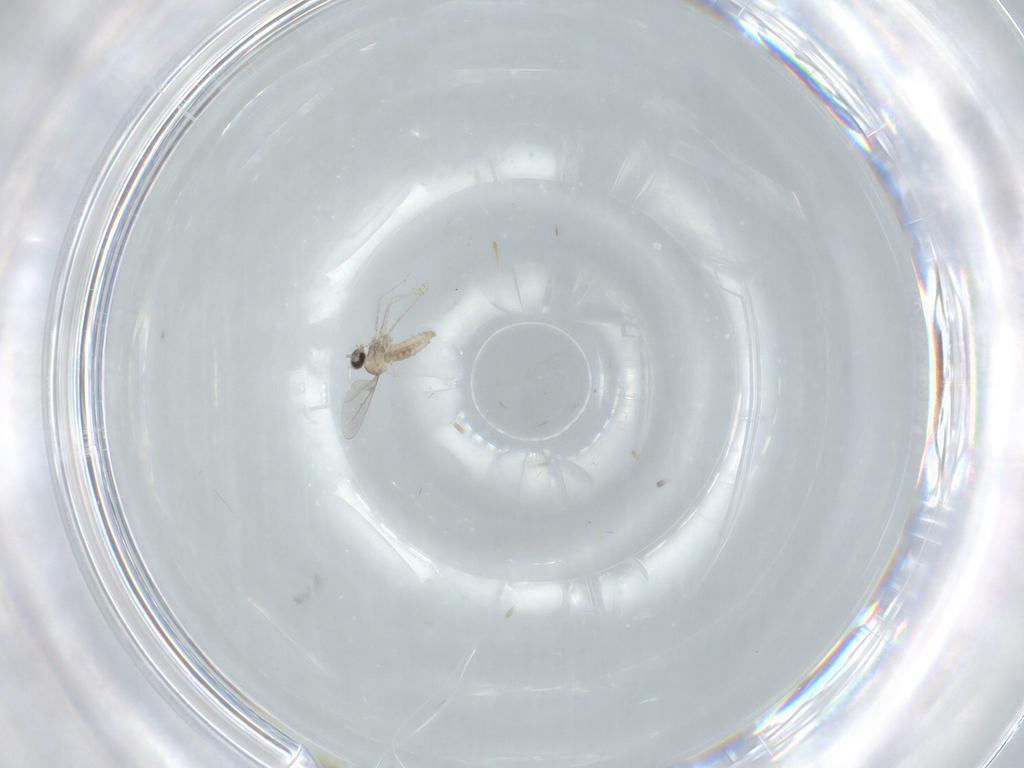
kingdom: Animalia
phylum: Arthropoda
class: Insecta
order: Diptera
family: Cecidomyiidae
